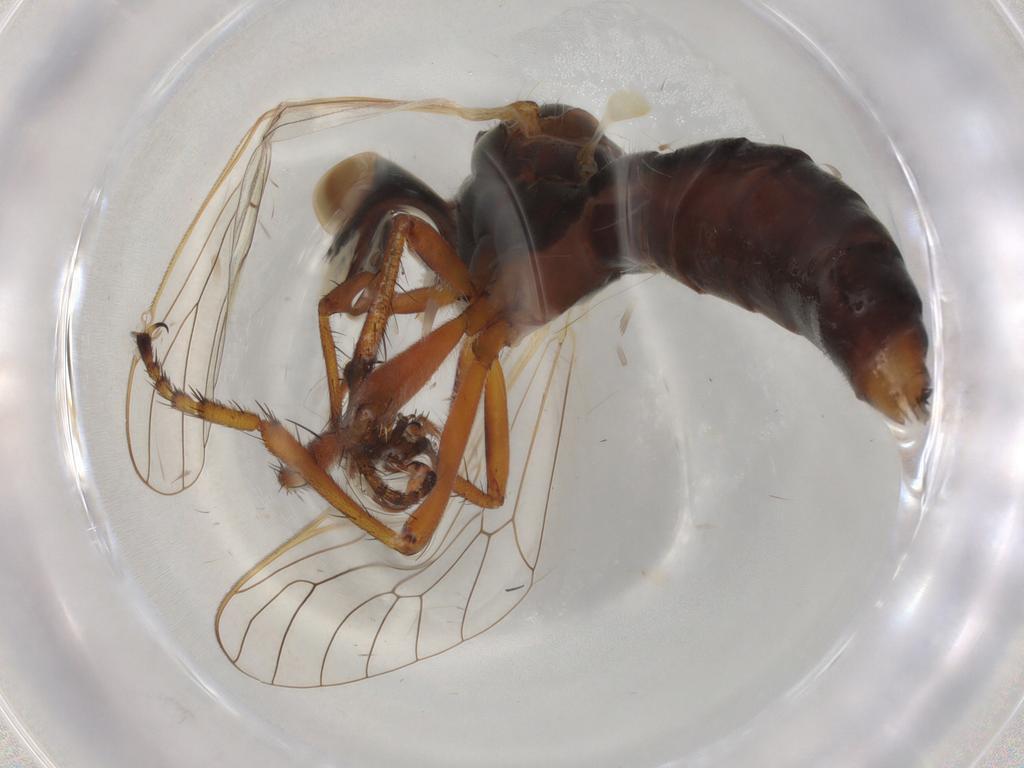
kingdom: Animalia
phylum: Arthropoda
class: Insecta
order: Diptera
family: Asilidae
